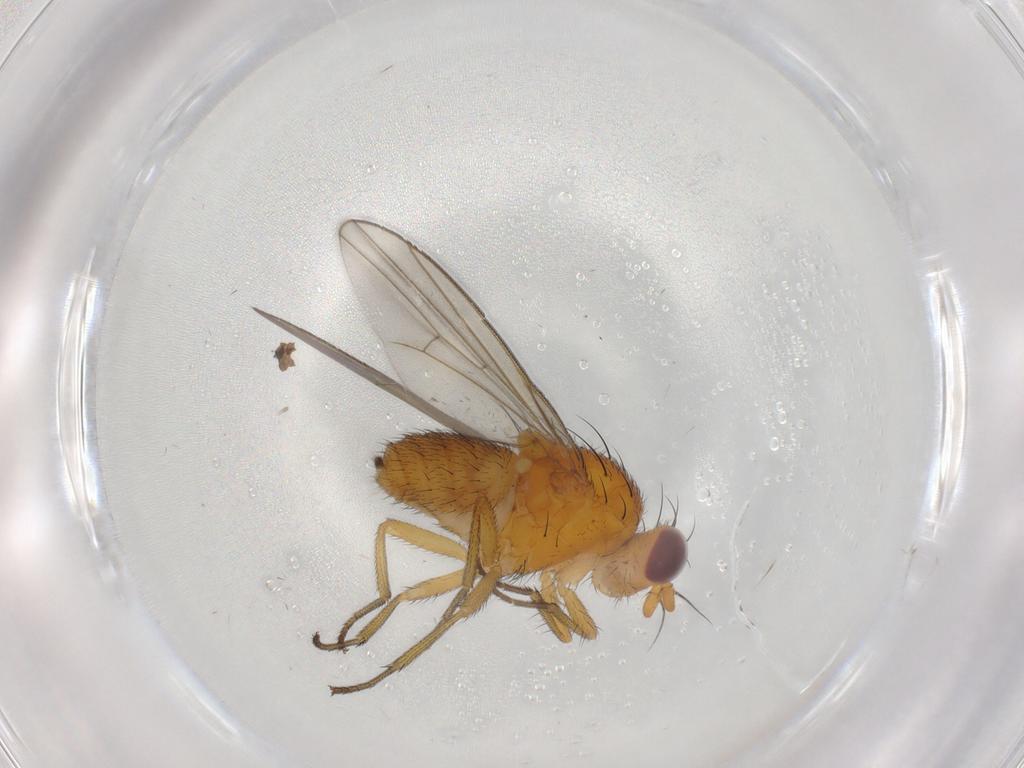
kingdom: Animalia
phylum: Arthropoda
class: Insecta
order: Diptera
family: Lauxaniidae
